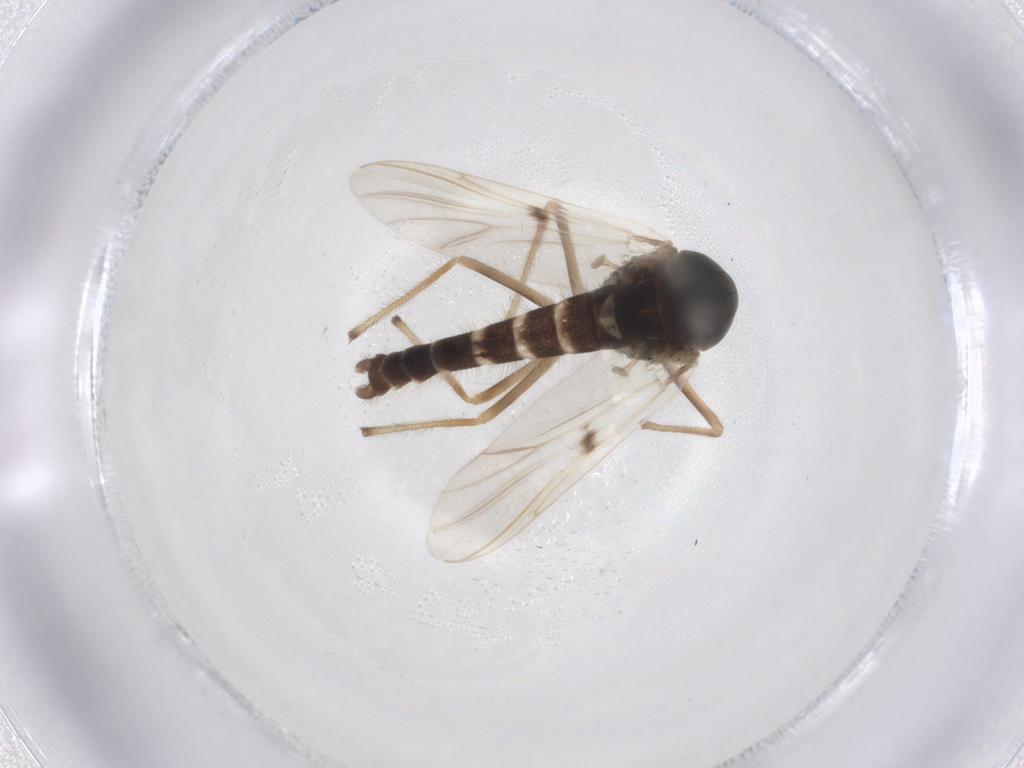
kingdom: Animalia
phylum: Arthropoda
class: Insecta
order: Diptera
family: Chironomidae
